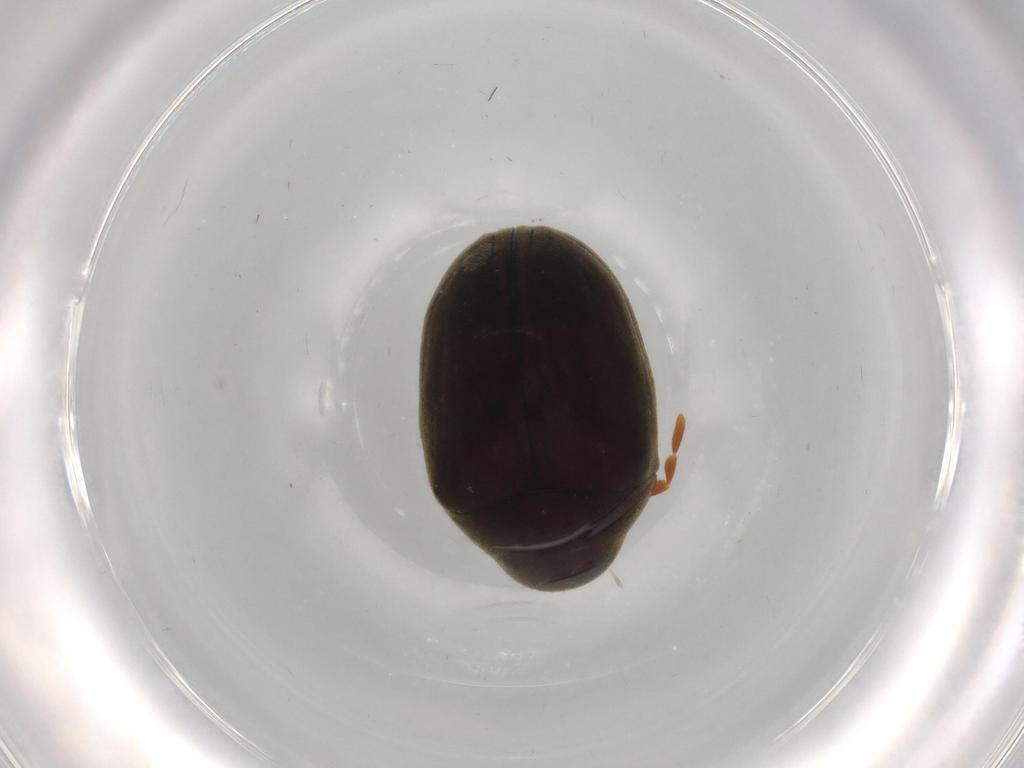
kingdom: Animalia
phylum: Arthropoda
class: Insecta
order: Coleoptera
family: Ptinidae
